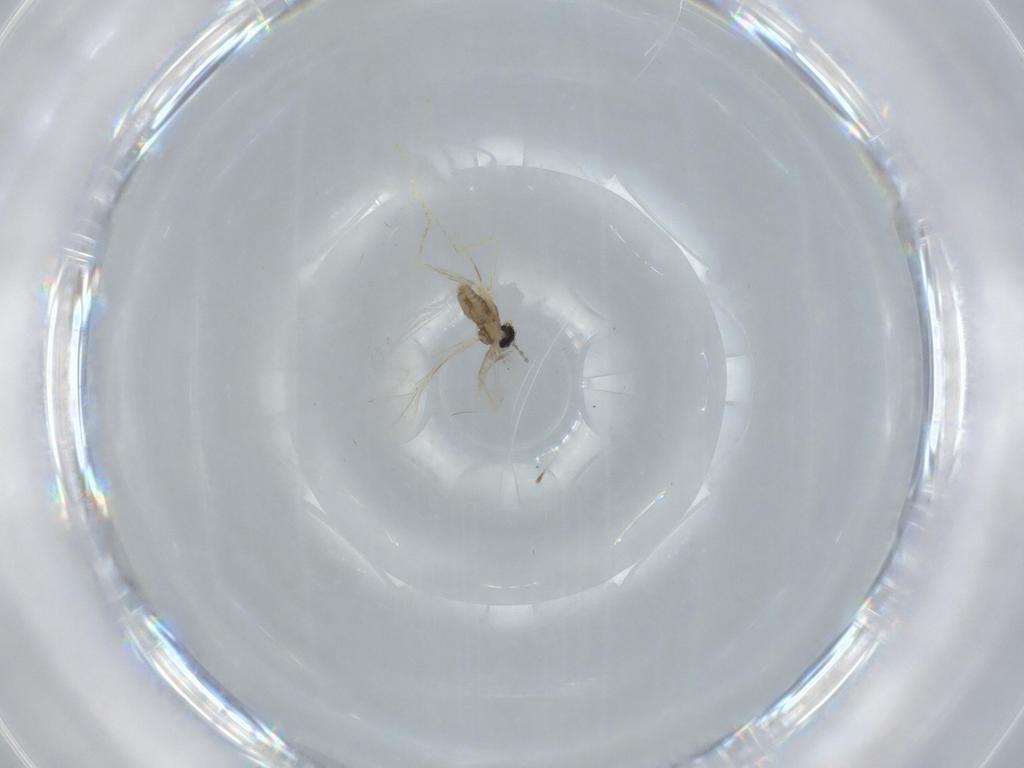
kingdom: Animalia
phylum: Arthropoda
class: Insecta
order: Diptera
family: Cecidomyiidae
